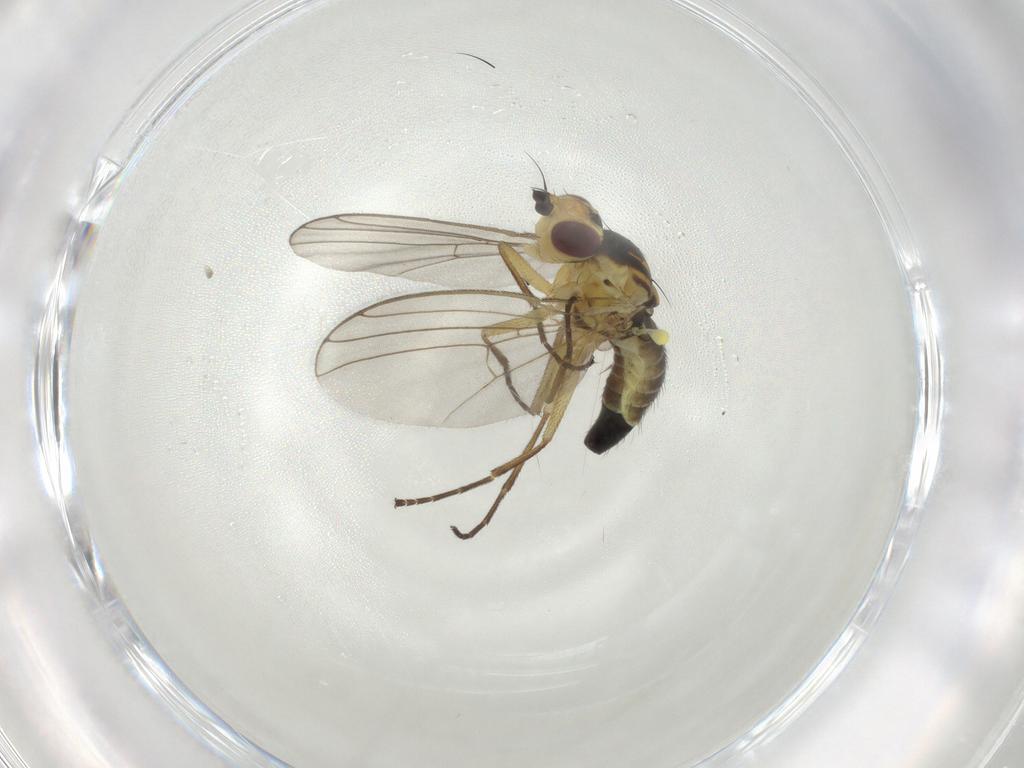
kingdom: Animalia
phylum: Arthropoda
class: Insecta
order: Diptera
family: Agromyzidae
